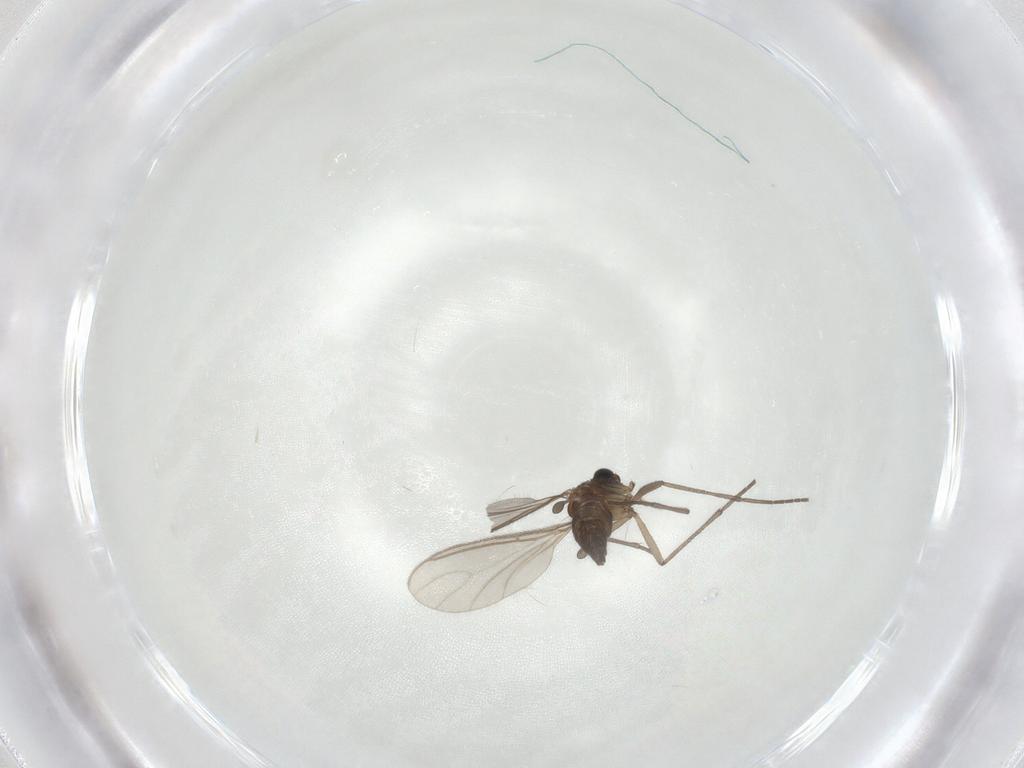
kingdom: Animalia
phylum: Arthropoda
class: Insecta
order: Diptera
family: Sciaridae
